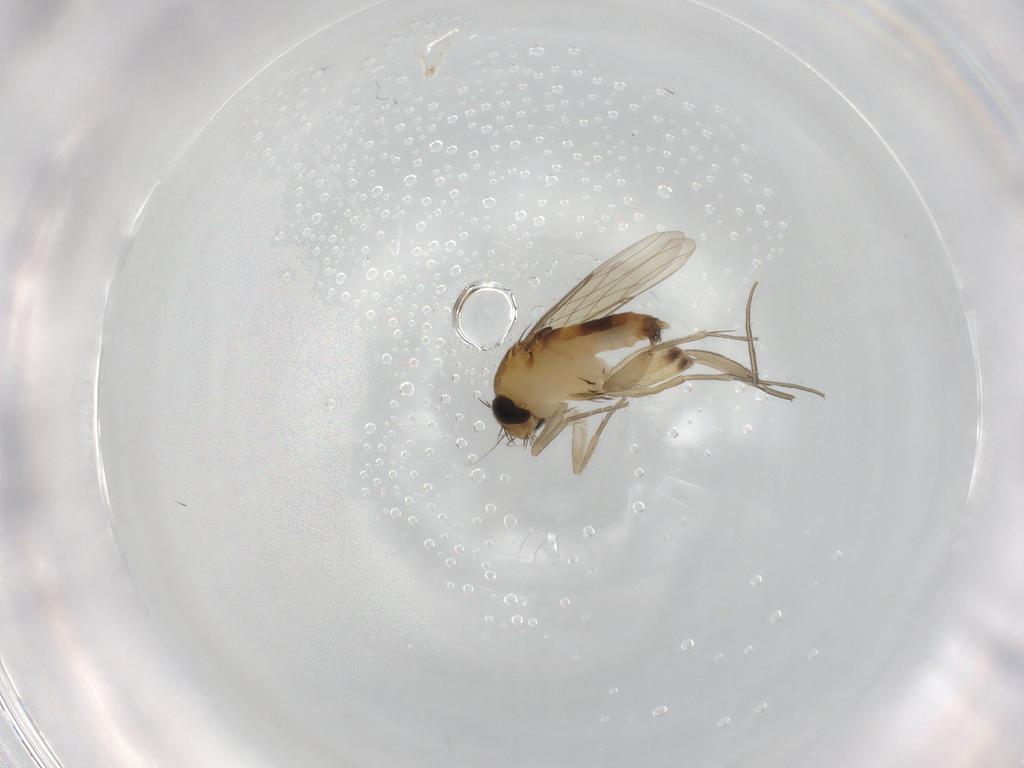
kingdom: Animalia
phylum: Arthropoda
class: Insecta
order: Diptera
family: Phoridae
